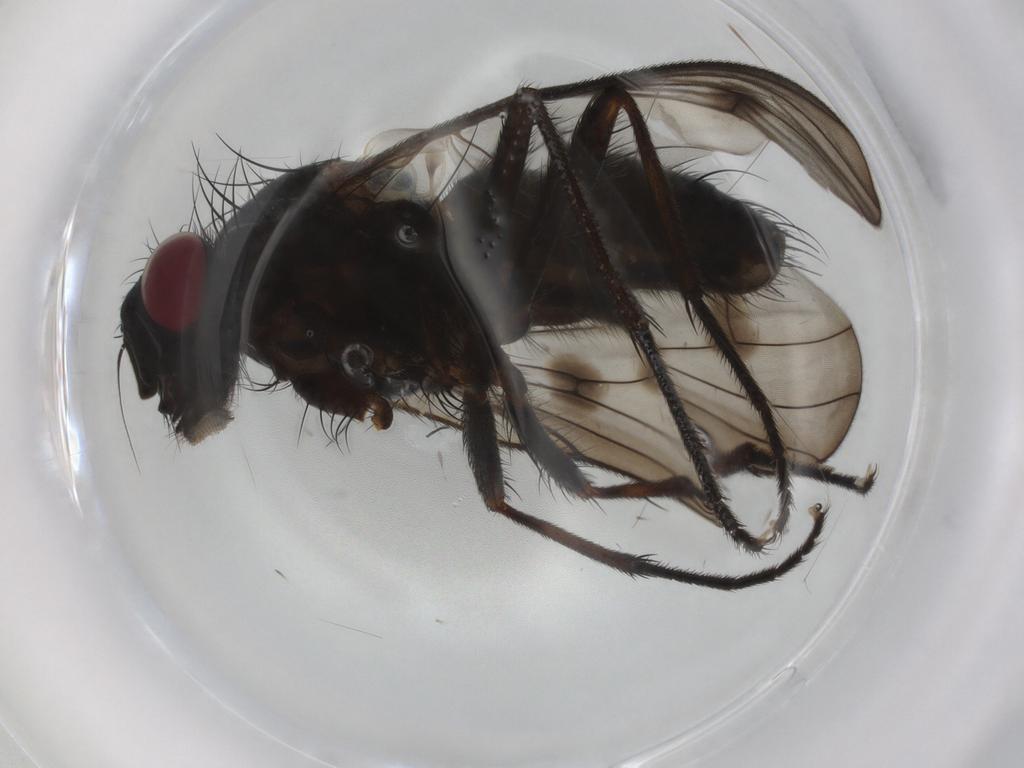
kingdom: Animalia
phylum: Arthropoda
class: Insecta
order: Diptera
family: Muscidae
